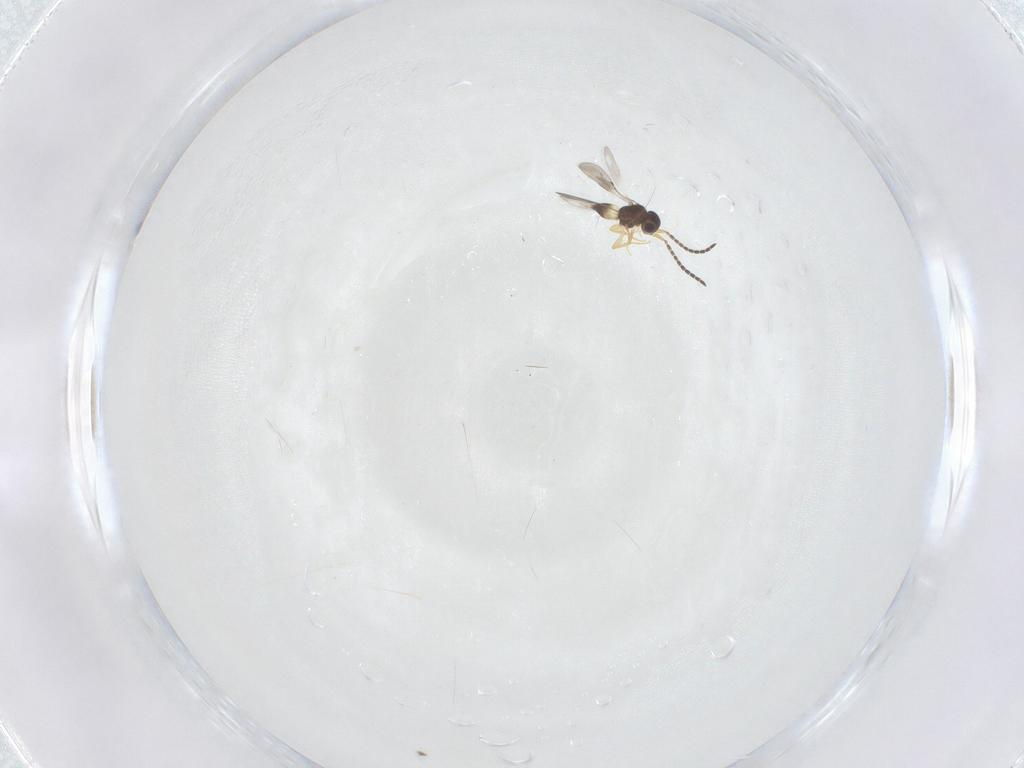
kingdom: Animalia
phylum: Arthropoda
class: Insecta
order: Hymenoptera
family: Ceraphronidae
